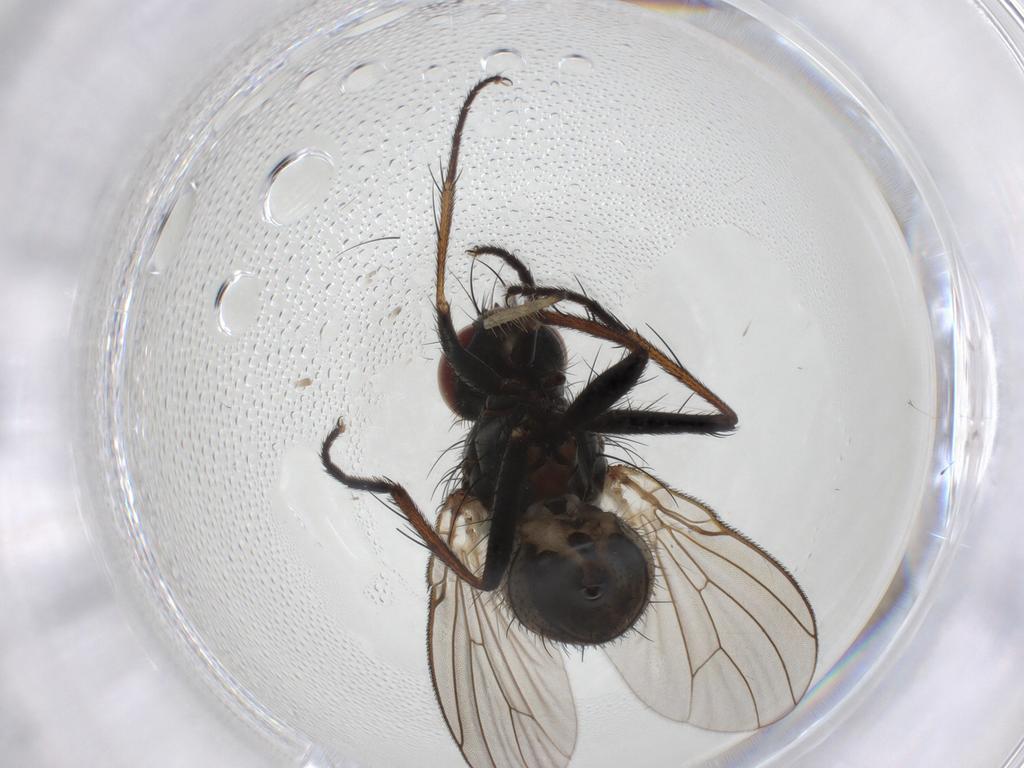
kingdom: Animalia
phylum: Arthropoda
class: Insecta
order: Diptera
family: Muscidae
